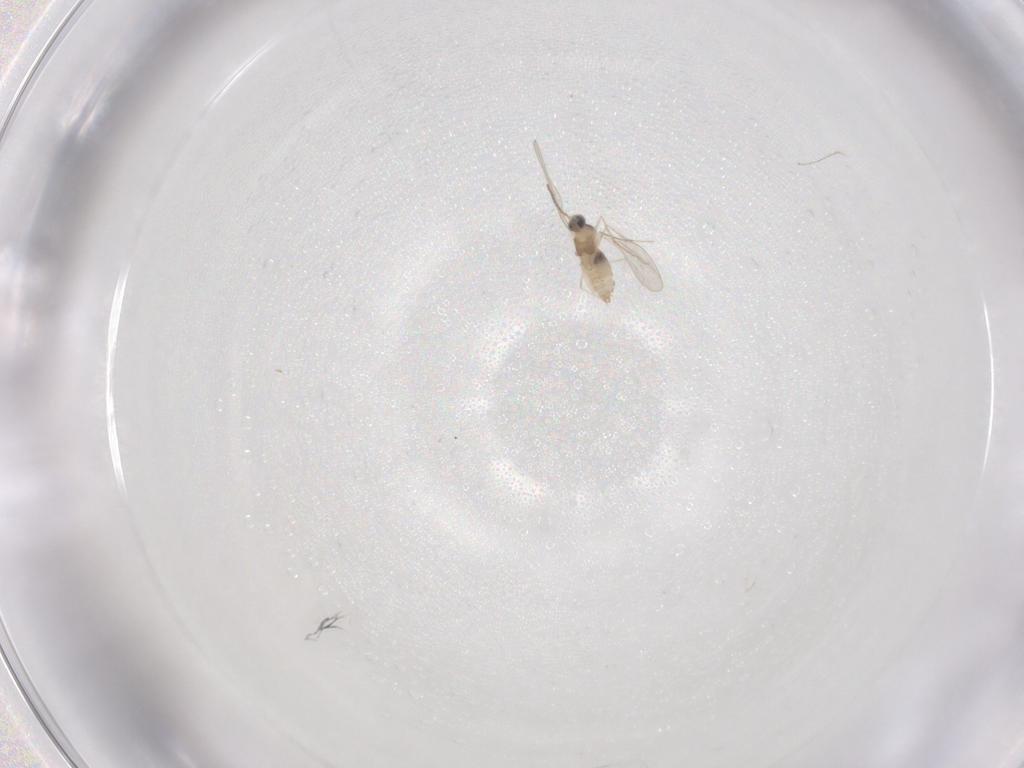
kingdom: Animalia
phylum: Arthropoda
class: Insecta
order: Diptera
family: Cecidomyiidae
